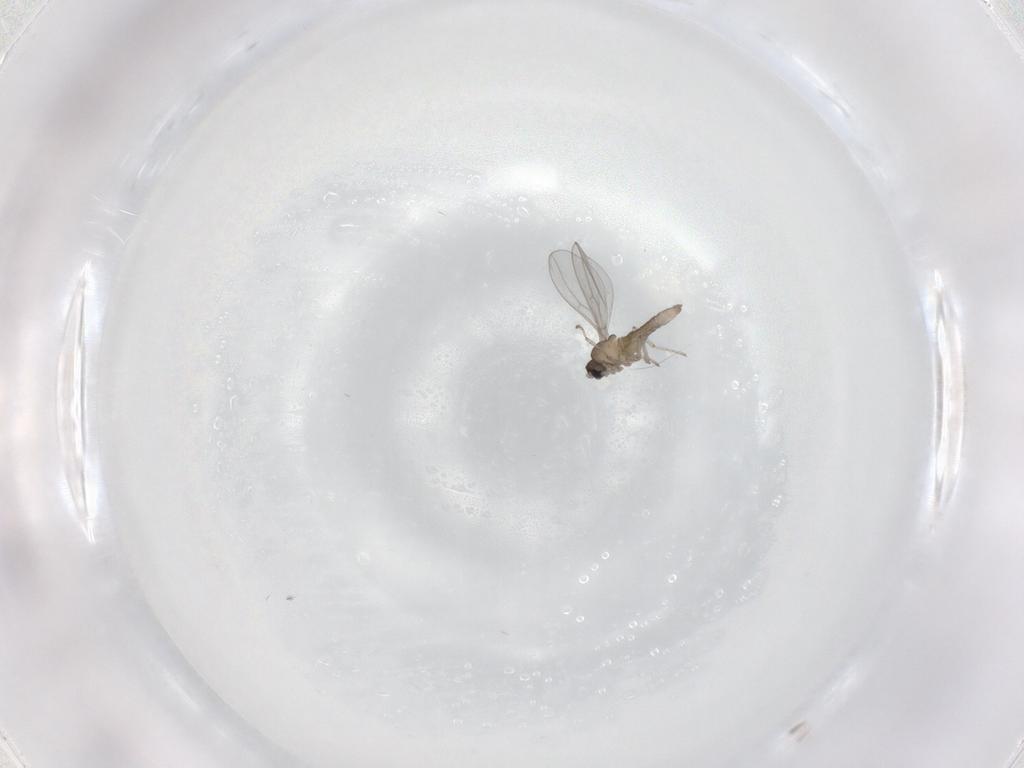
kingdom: Animalia
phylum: Arthropoda
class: Insecta
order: Diptera
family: Cecidomyiidae
